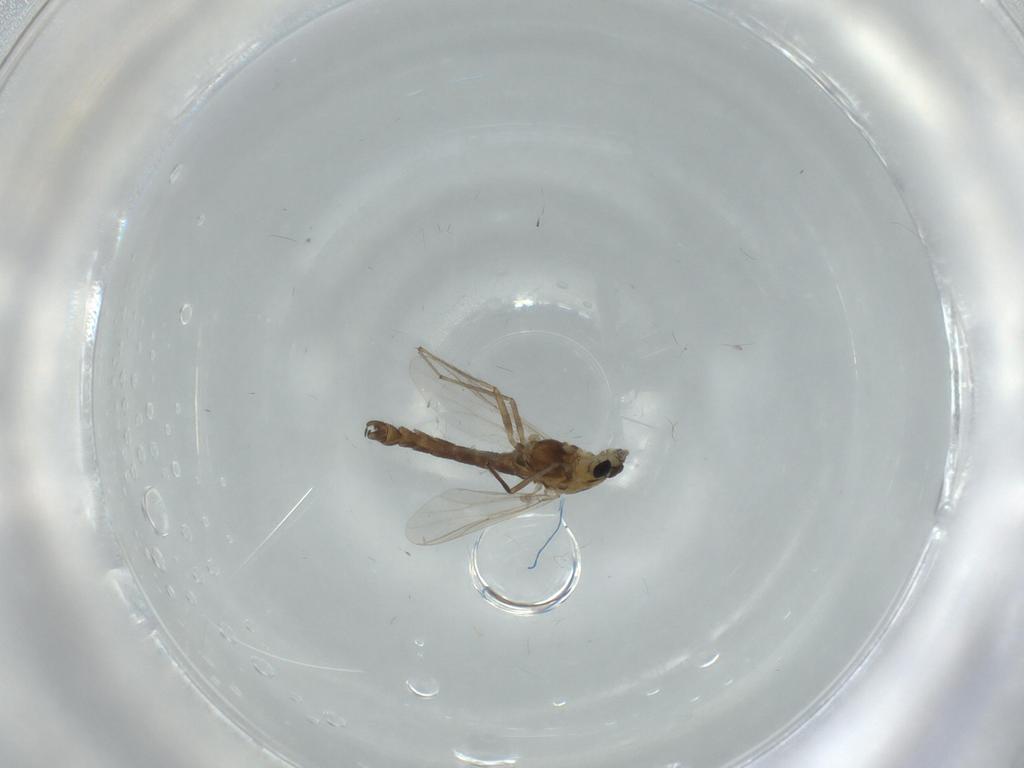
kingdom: Animalia
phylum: Arthropoda
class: Insecta
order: Diptera
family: Chironomidae
